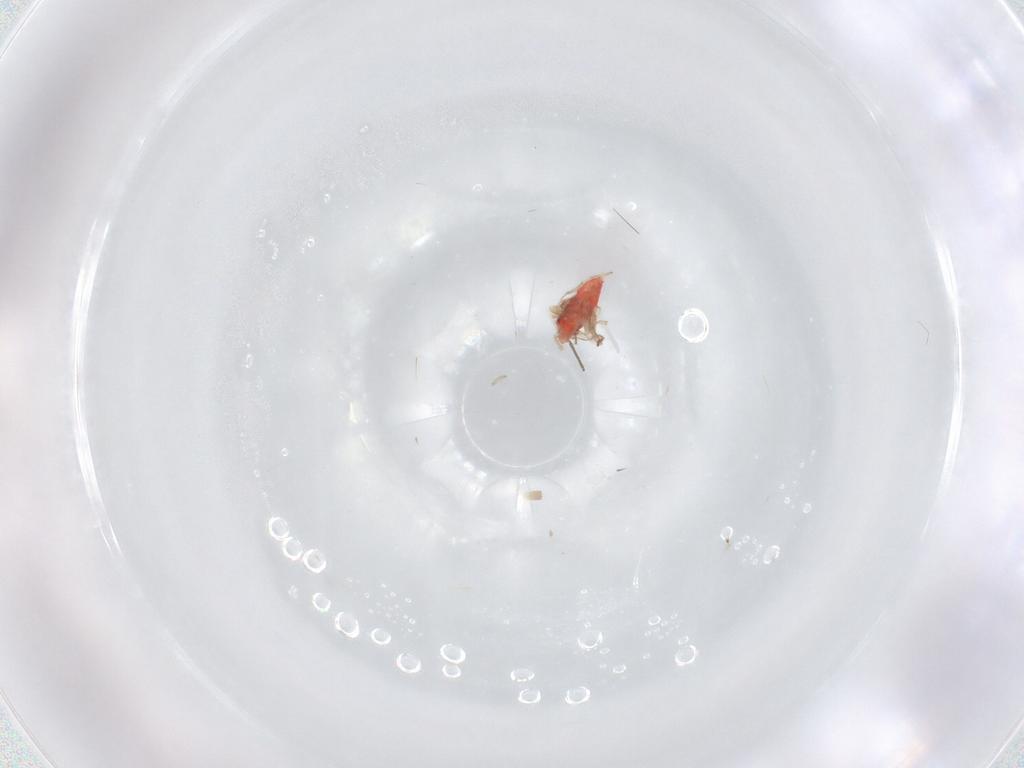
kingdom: Animalia
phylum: Arthropoda
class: Insecta
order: Hemiptera
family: Miridae
